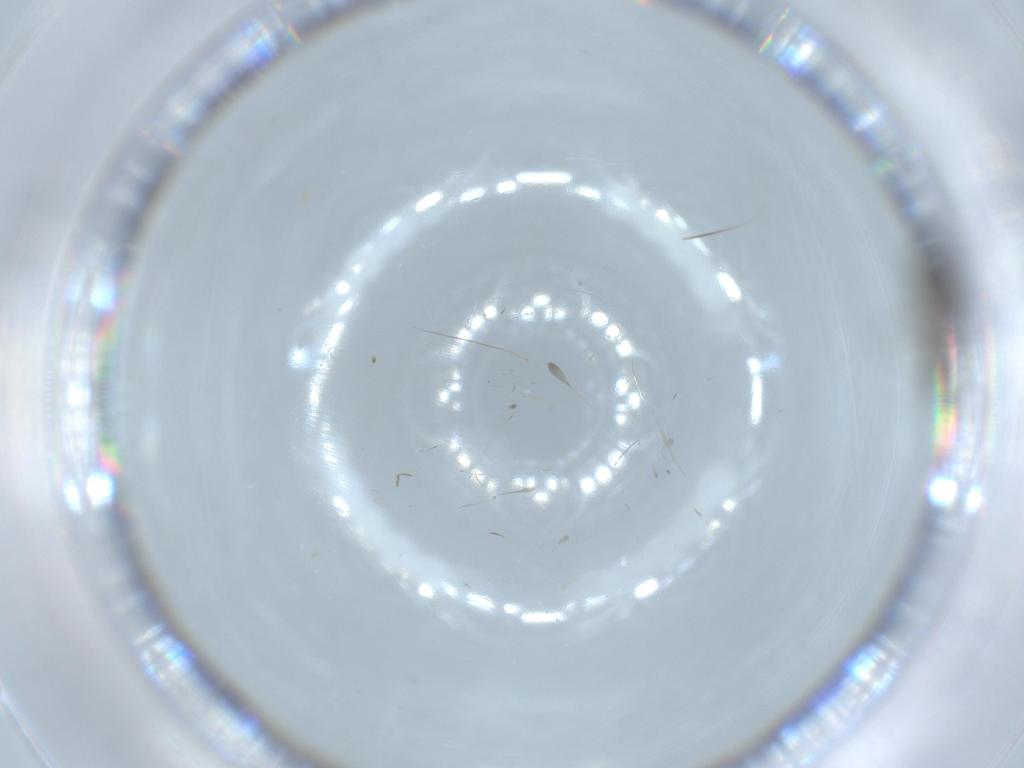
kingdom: Animalia
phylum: Arthropoda
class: Insecta
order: Diptera
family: Sciaridae
